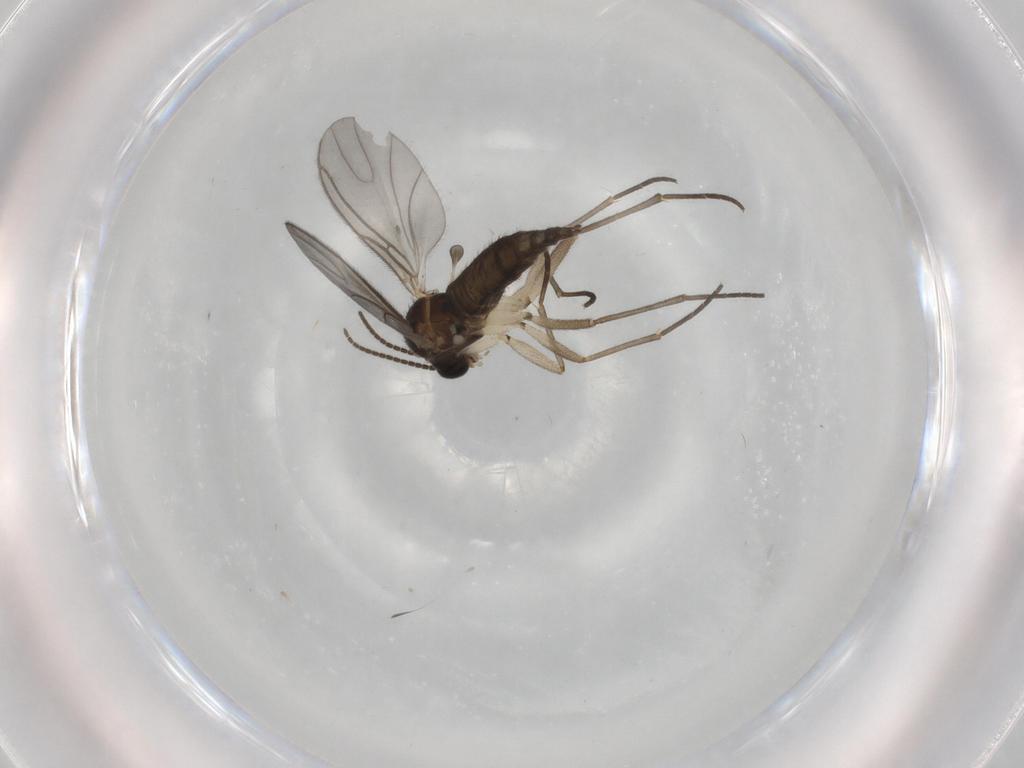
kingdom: Animalia
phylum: Arthropoda
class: Insecta
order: Diptera
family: Sciaridae
